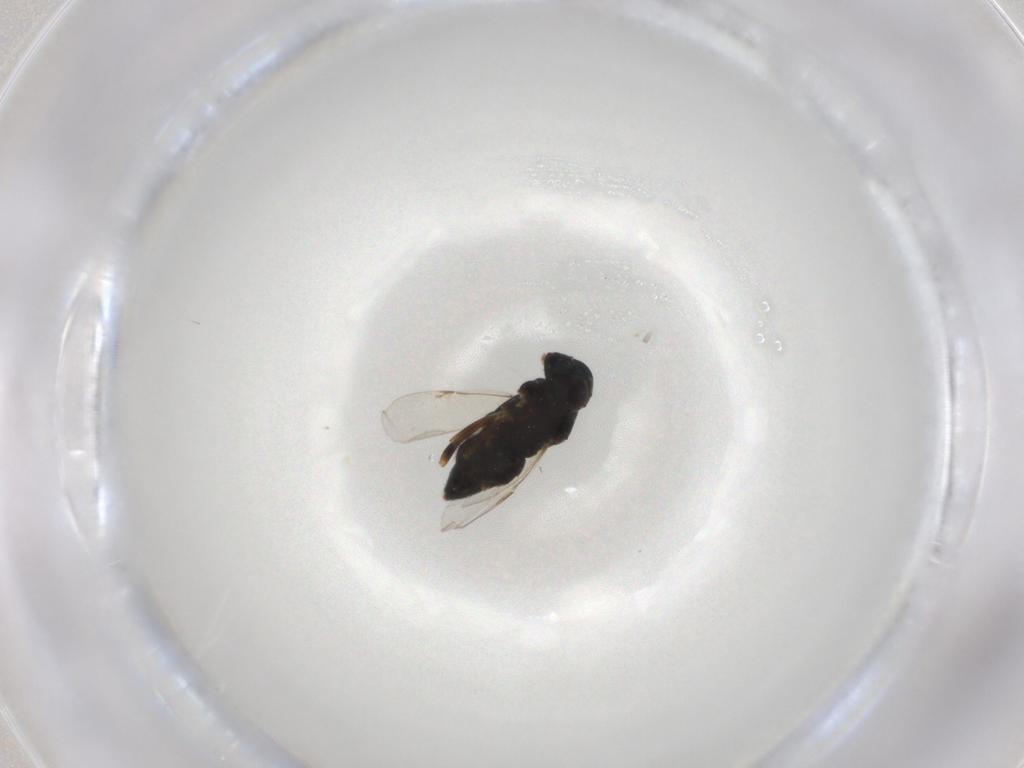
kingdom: Animalia
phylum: Arthropoda
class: Insecta
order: Hymenoptera
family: Encyrtidae
